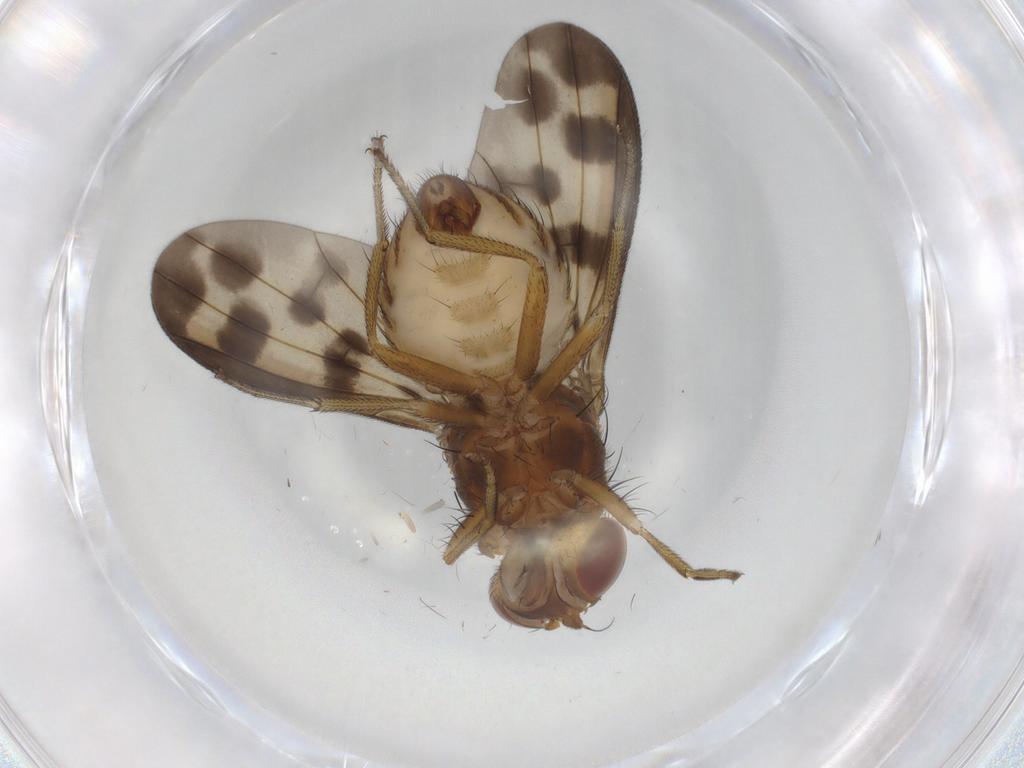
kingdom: Animalia
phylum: Arthropoda
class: Insecta
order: Diptera
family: Lauxaniidae
